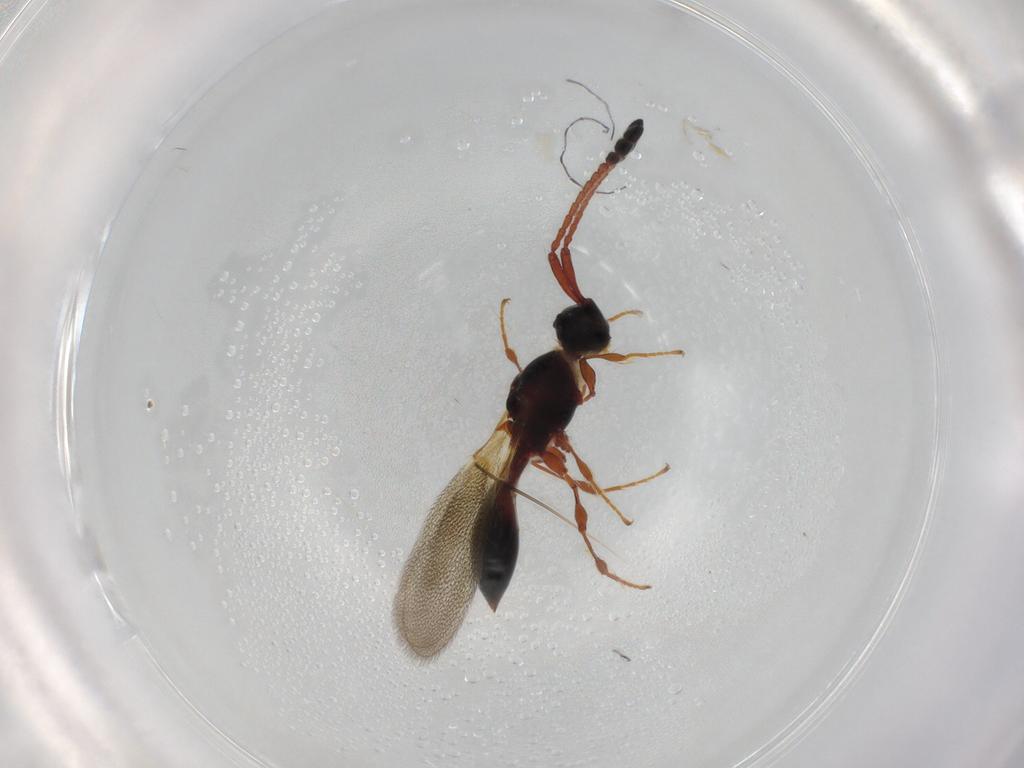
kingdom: Animalia
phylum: Arthropoda
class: Insecta
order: Hymenoptera
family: Diapriidae
